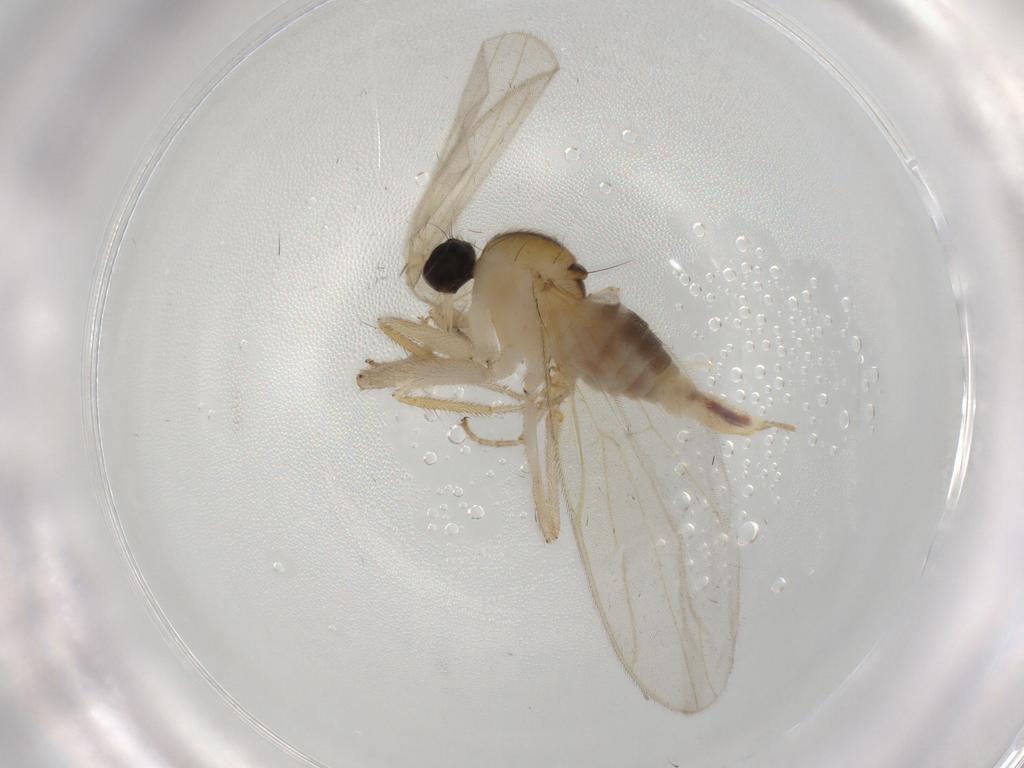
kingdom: Animalia
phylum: Arthropoda
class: Insecta
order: Diptera
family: Hybotidae
